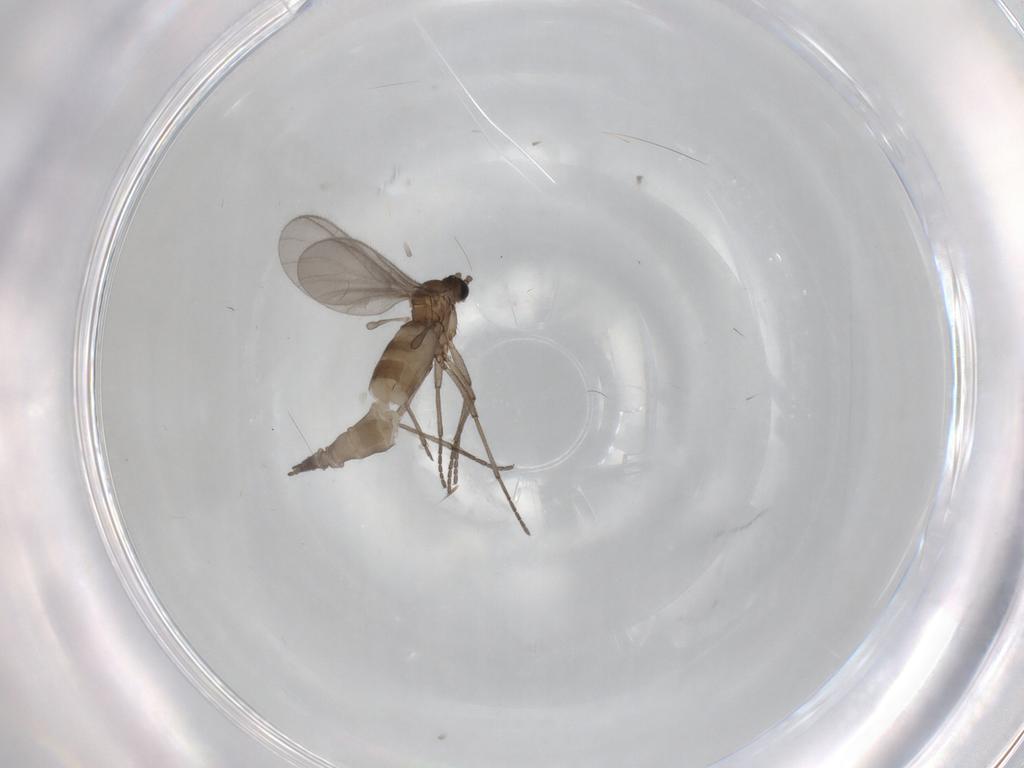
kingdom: Animalia
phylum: Arthropoda
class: Insecta
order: Diptera
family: Sciaridae
